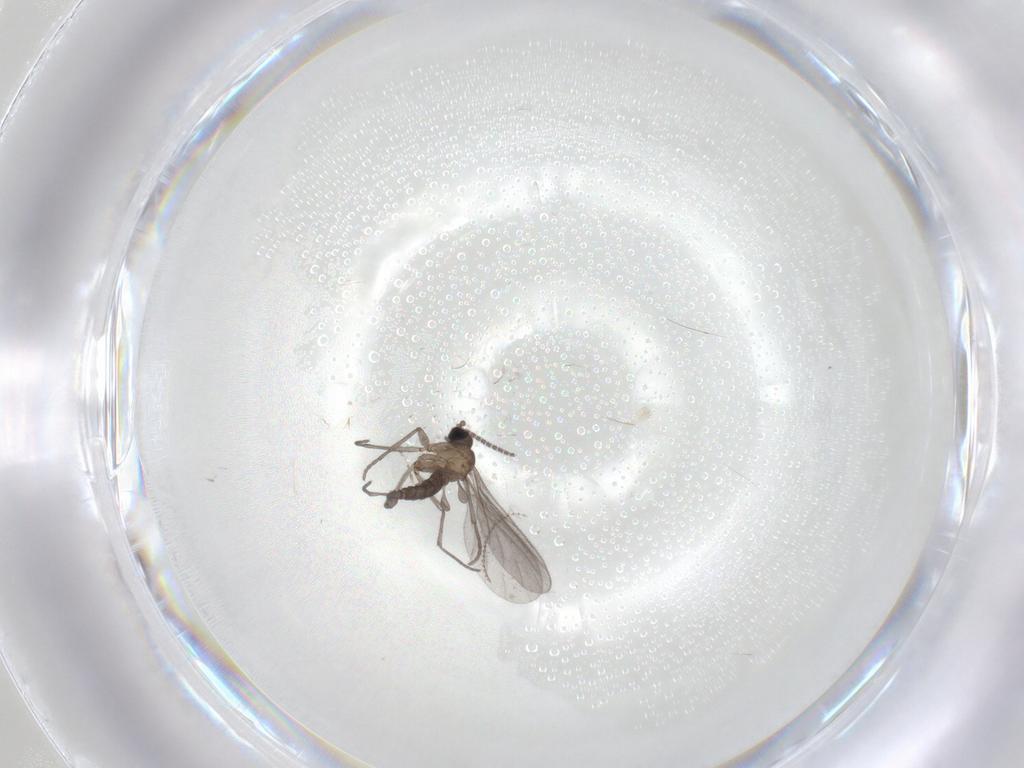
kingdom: Animalia
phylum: Arthropoda
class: Insecta
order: Diptera
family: Sciaridae
